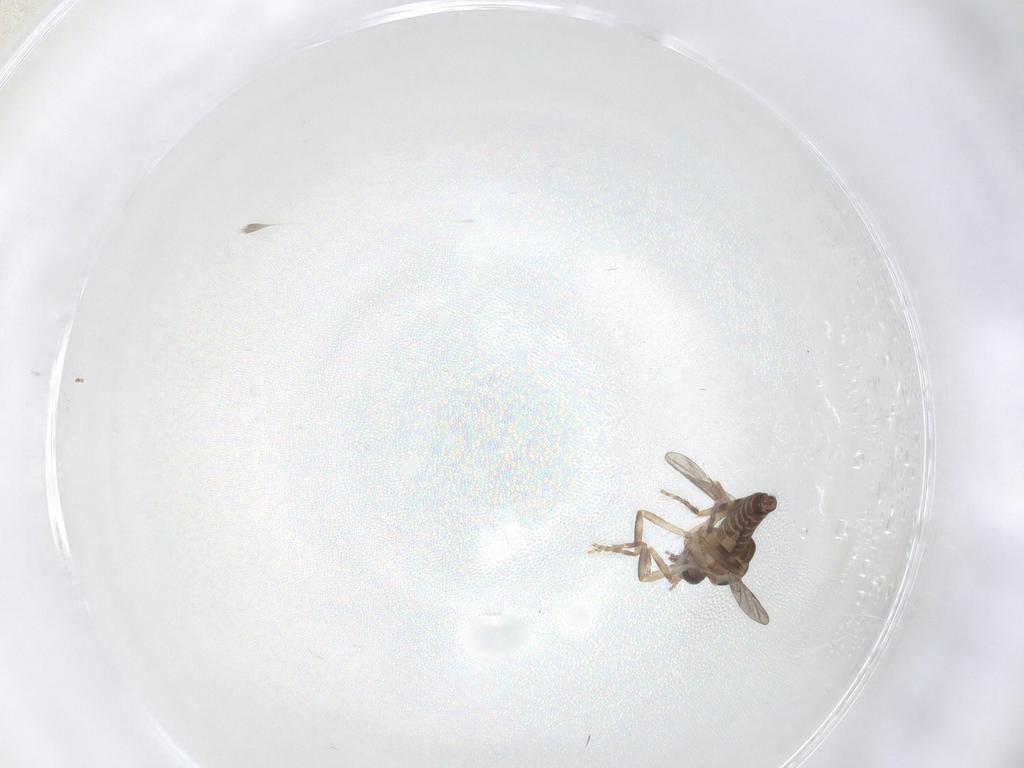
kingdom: Animalia
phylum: Arthropoda
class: Insecta
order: Diptera
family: Ceratopogonidae
